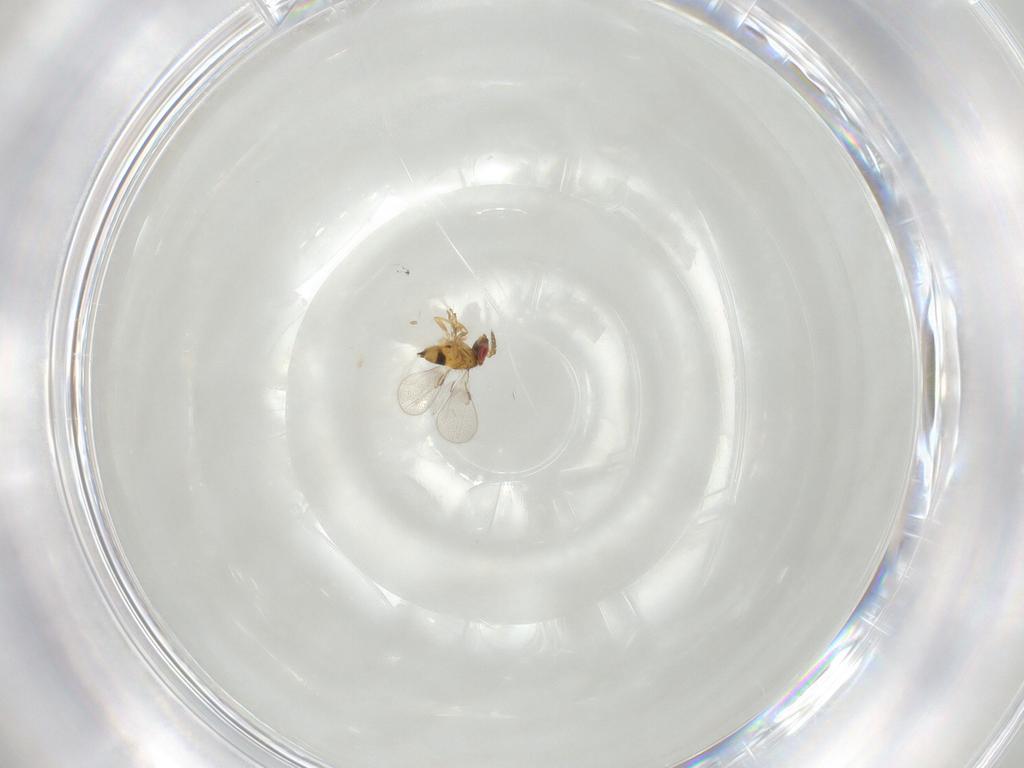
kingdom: Animalia
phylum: Arthropoda
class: Insecta
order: Hymenoptera
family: Trichogrammatidae
